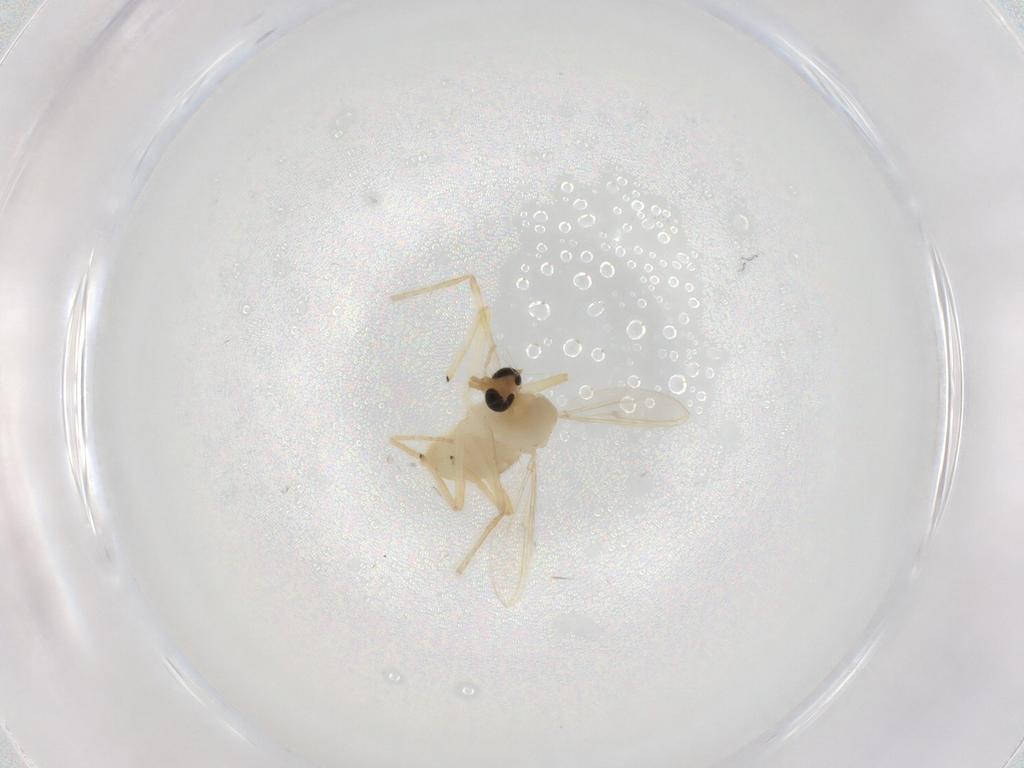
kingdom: Animalia
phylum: Arthropoda
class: Insecta
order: Diptera
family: Chironomidae
